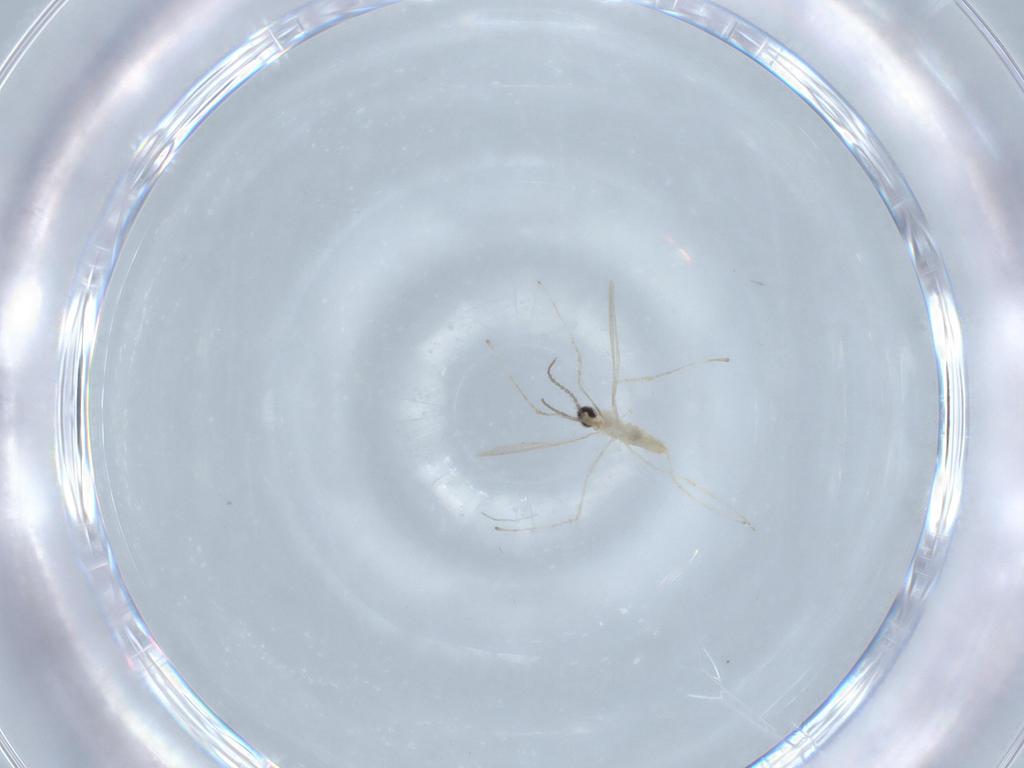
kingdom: Animalia
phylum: Arthropoda
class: Insecta
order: Diptera
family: Cecidomyiidae
